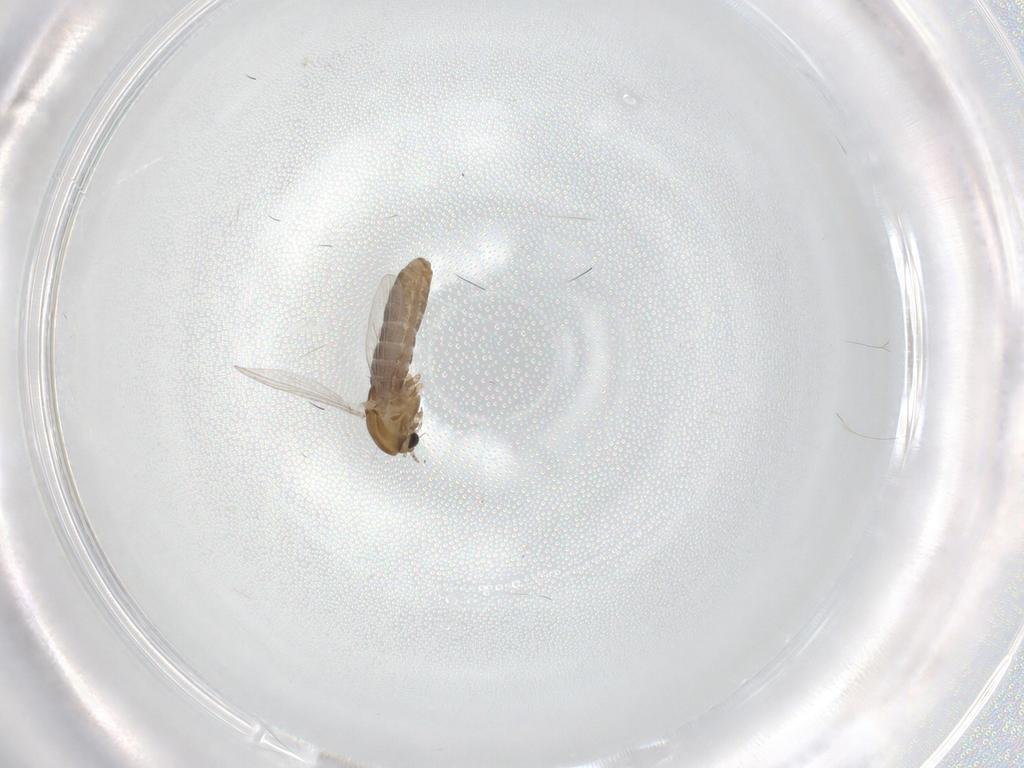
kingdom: Animalia
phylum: Arthropoda
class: Insecta
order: Diptera
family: Chironomidae
